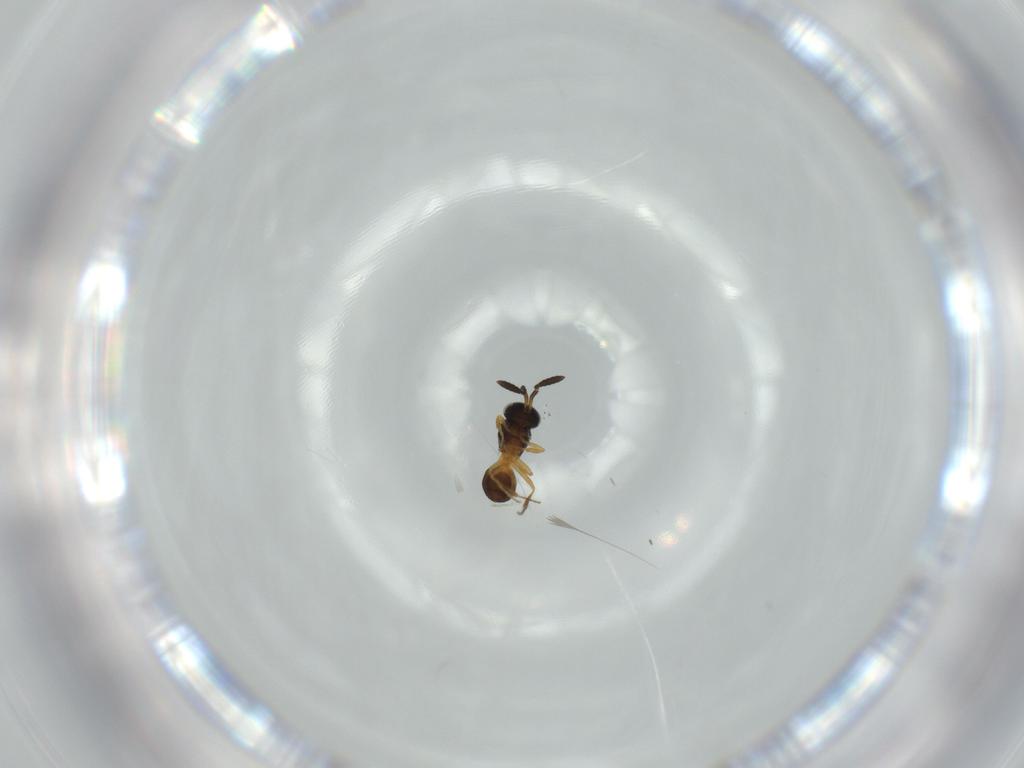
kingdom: Animalia
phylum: Arthropoda
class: Insecta
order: Hymenoptera
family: Scelionidae
